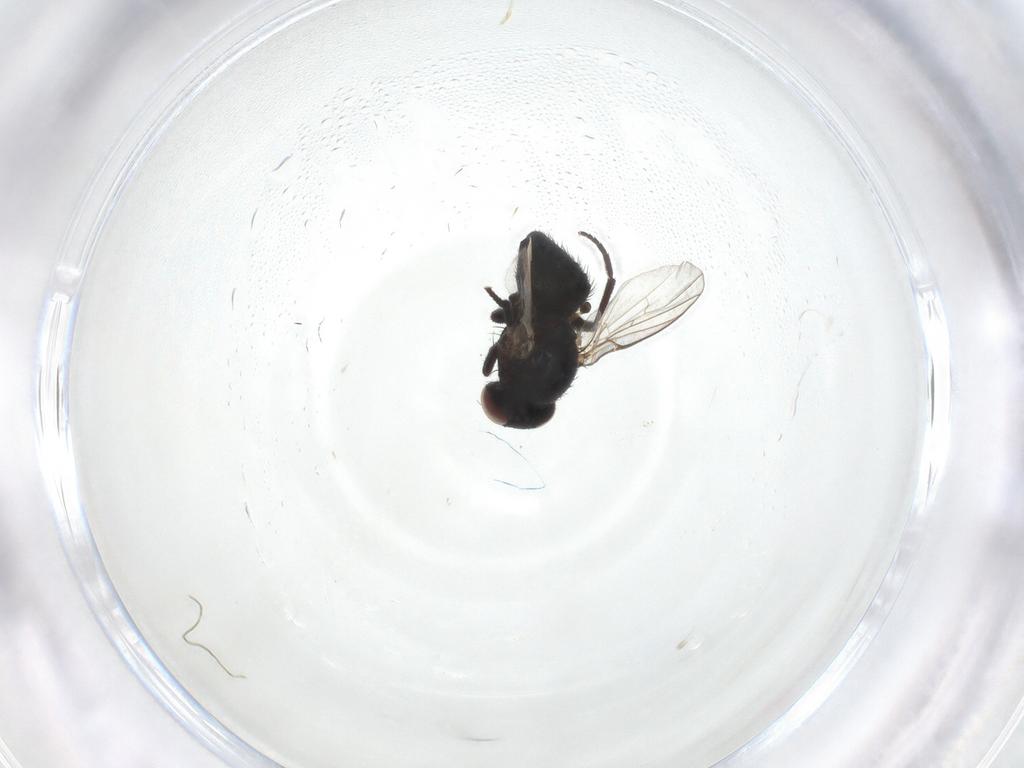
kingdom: Animalia
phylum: Arthropoda
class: Insecta
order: Diptera
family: Agromyzidae
